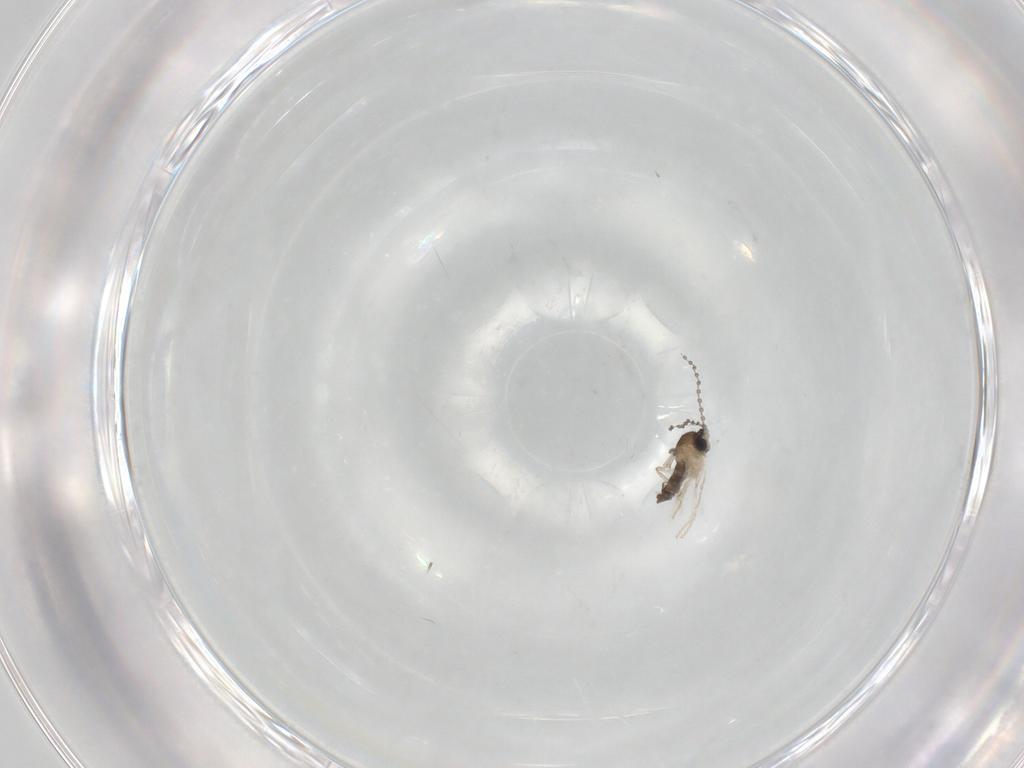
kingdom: Animalia
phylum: Arthropoda
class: Insecta
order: Diptera
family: Cecidomyiidae
